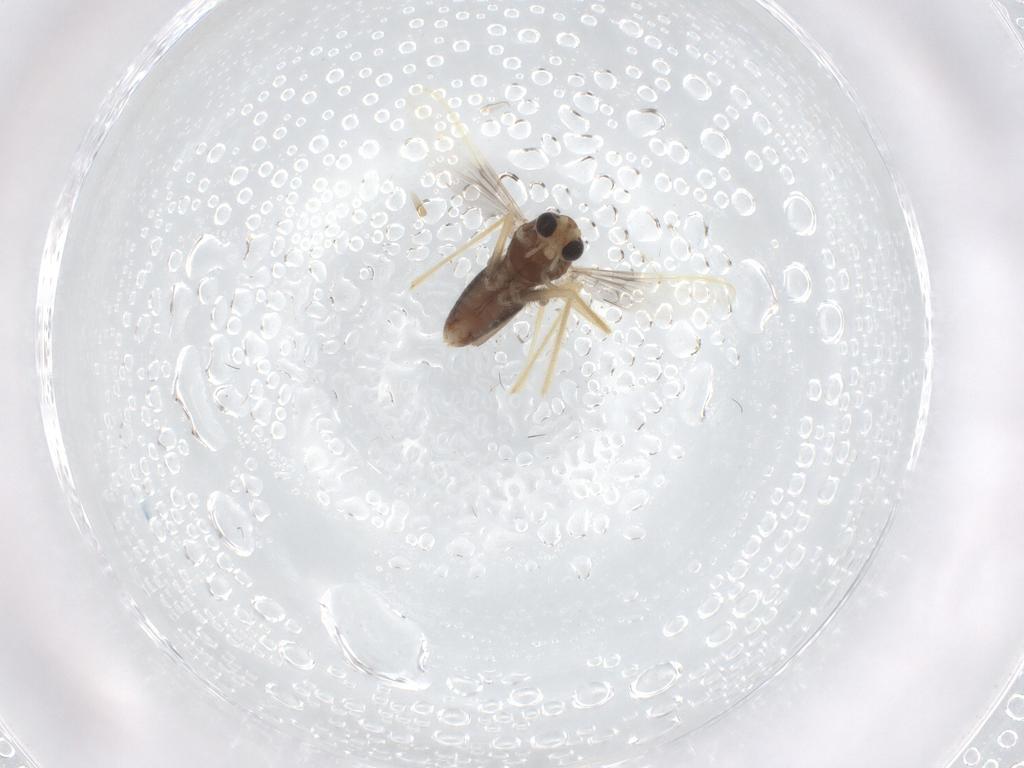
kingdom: Animalia
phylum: Arthropoda
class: Insecta
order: Diptera
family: Chironomidae
